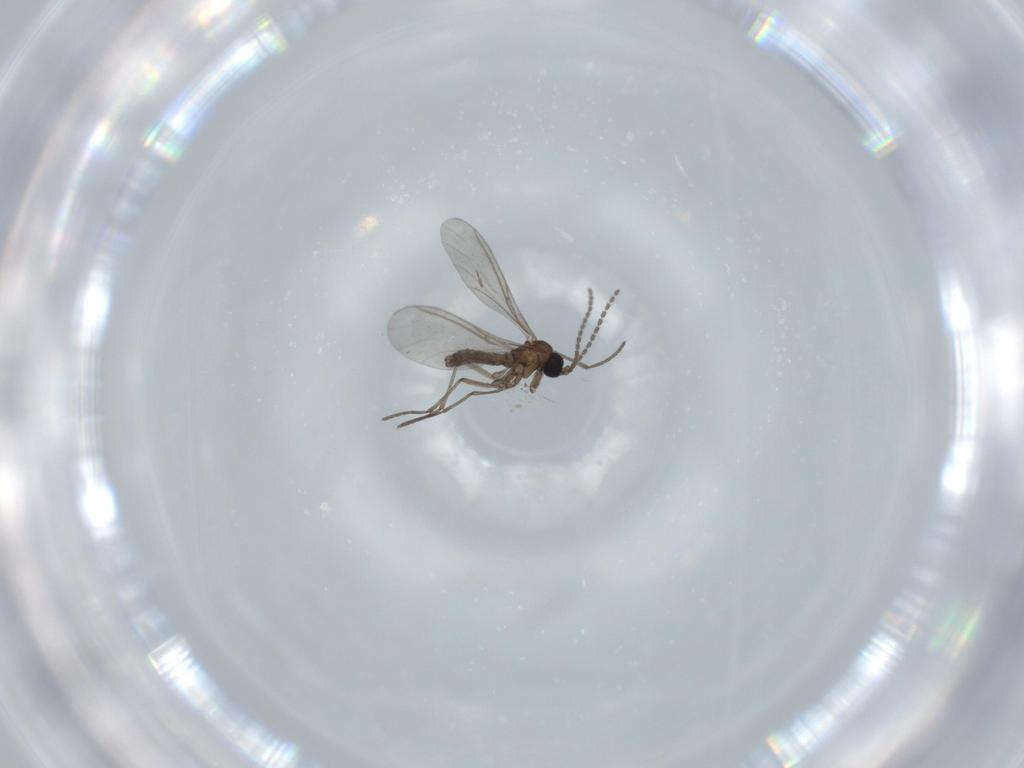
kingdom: Animalia
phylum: Arthropoda
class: Insecta
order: Diptera
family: Sciaridae
